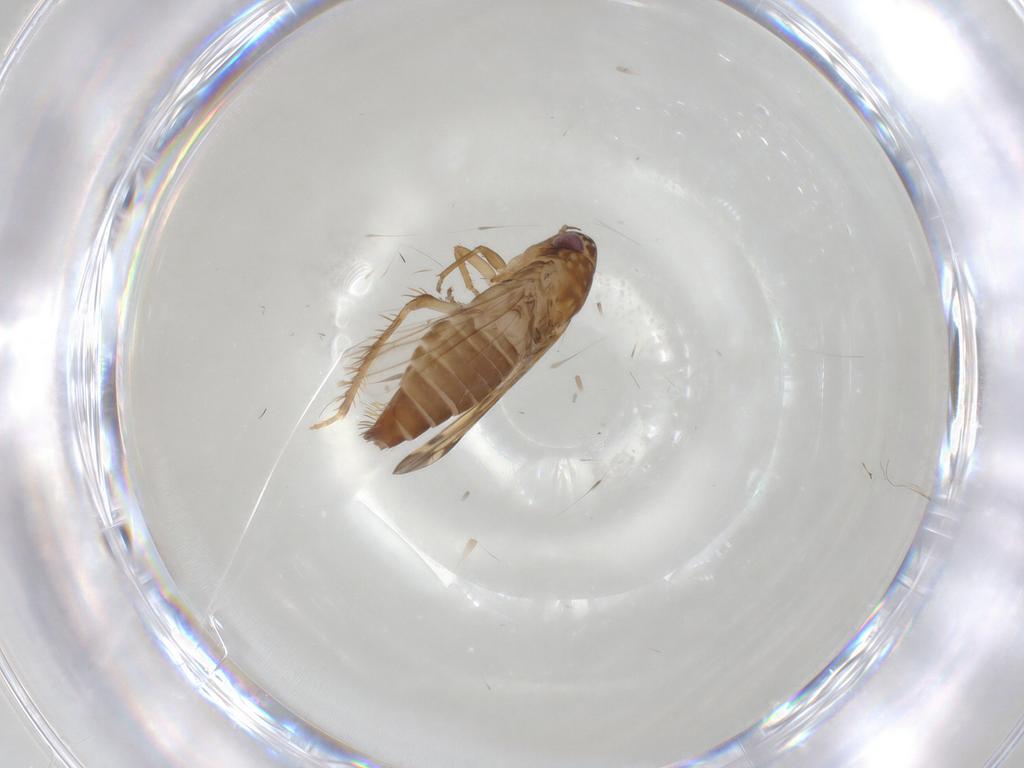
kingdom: Animalia
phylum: Arthropoda
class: Insecta
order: Hemiptera
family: Cicadellidae
